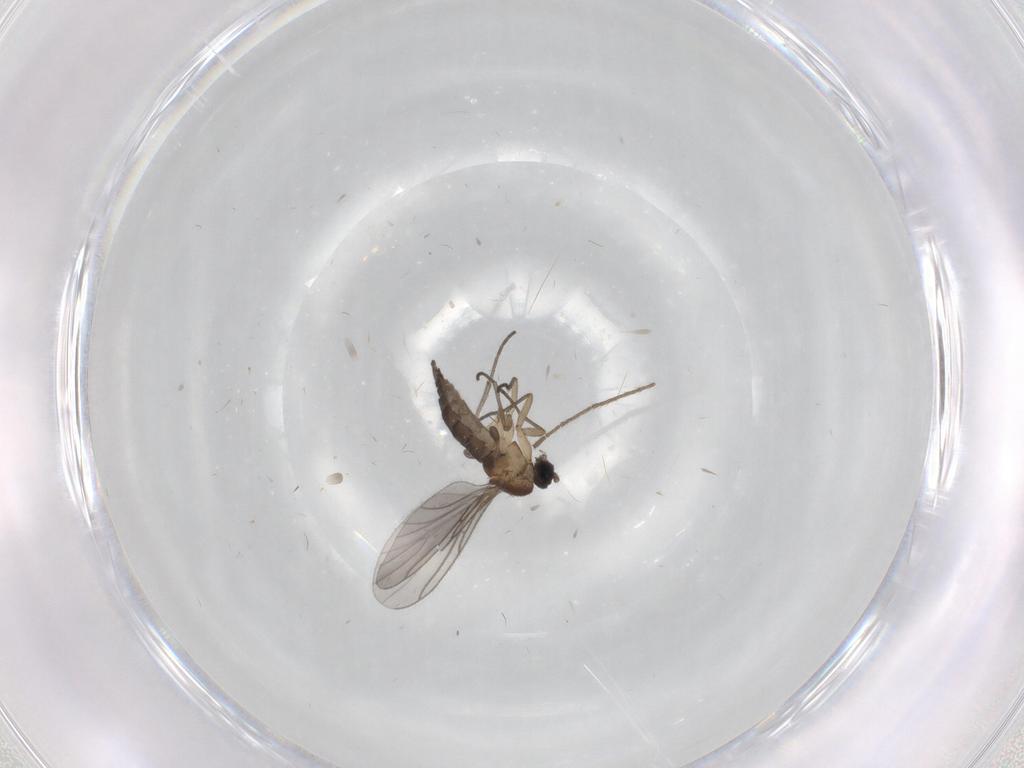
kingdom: Animalia
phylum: Arthropoda
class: Insecta
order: Diptera
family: Sciaridae
